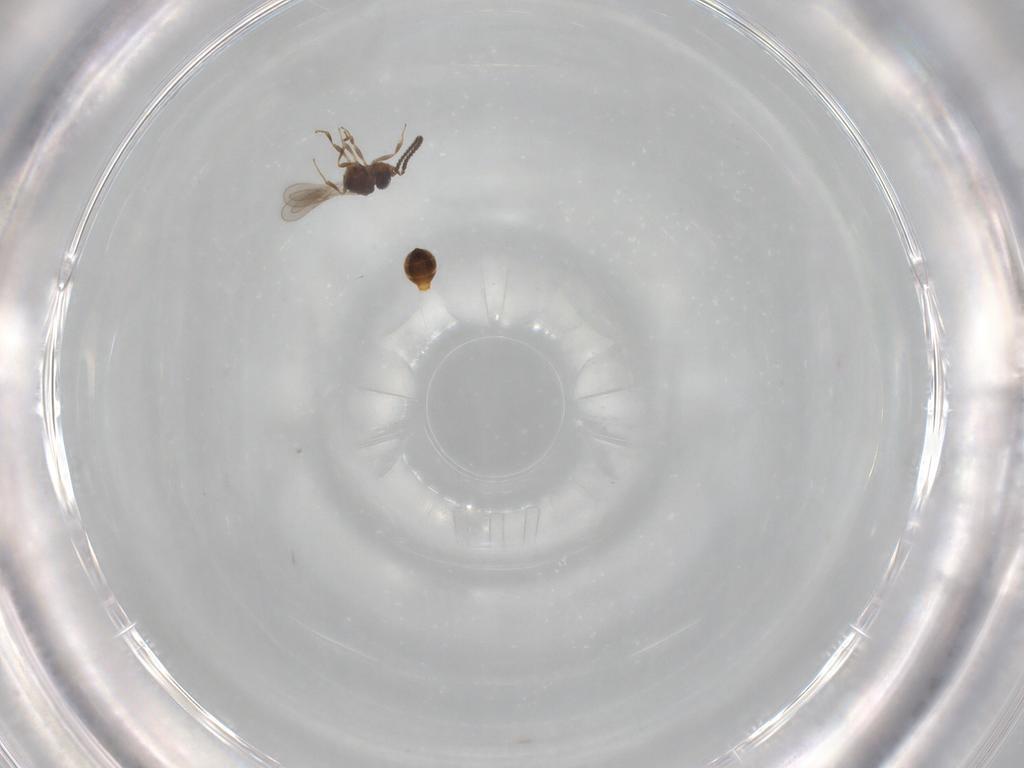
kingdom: Animalia
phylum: Arthropoda
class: Insecta
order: Hymenoptera
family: Scelionidae
